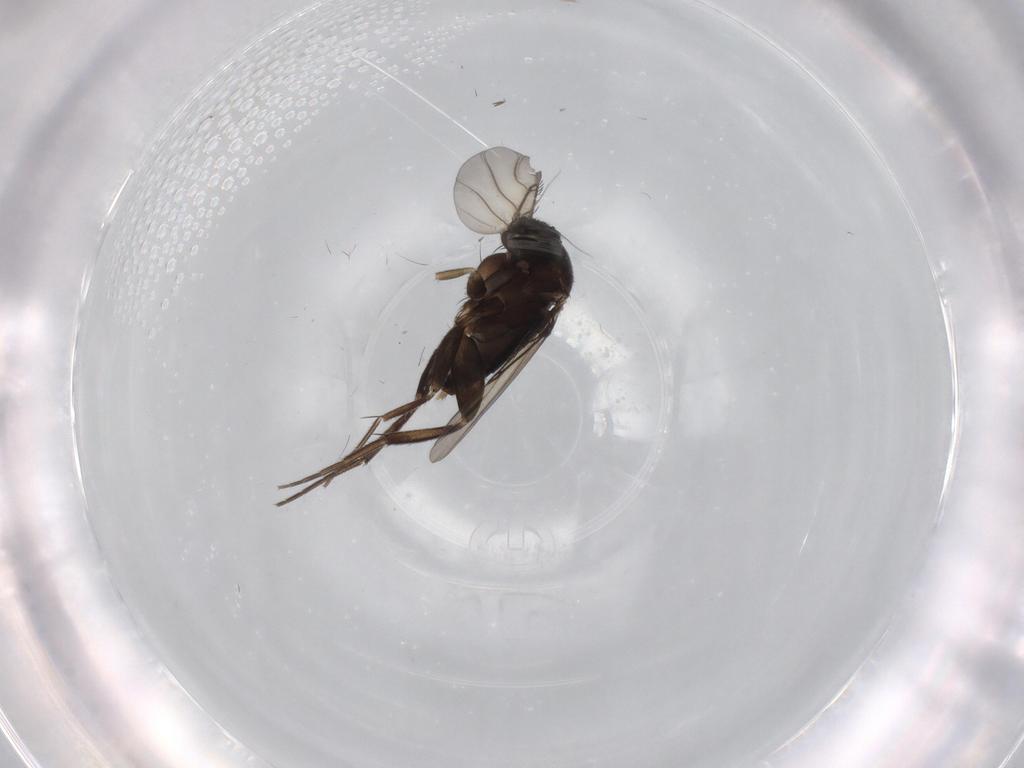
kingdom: Animalia
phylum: Arthropoda
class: Insecta
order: Diptera
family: Phoridae
